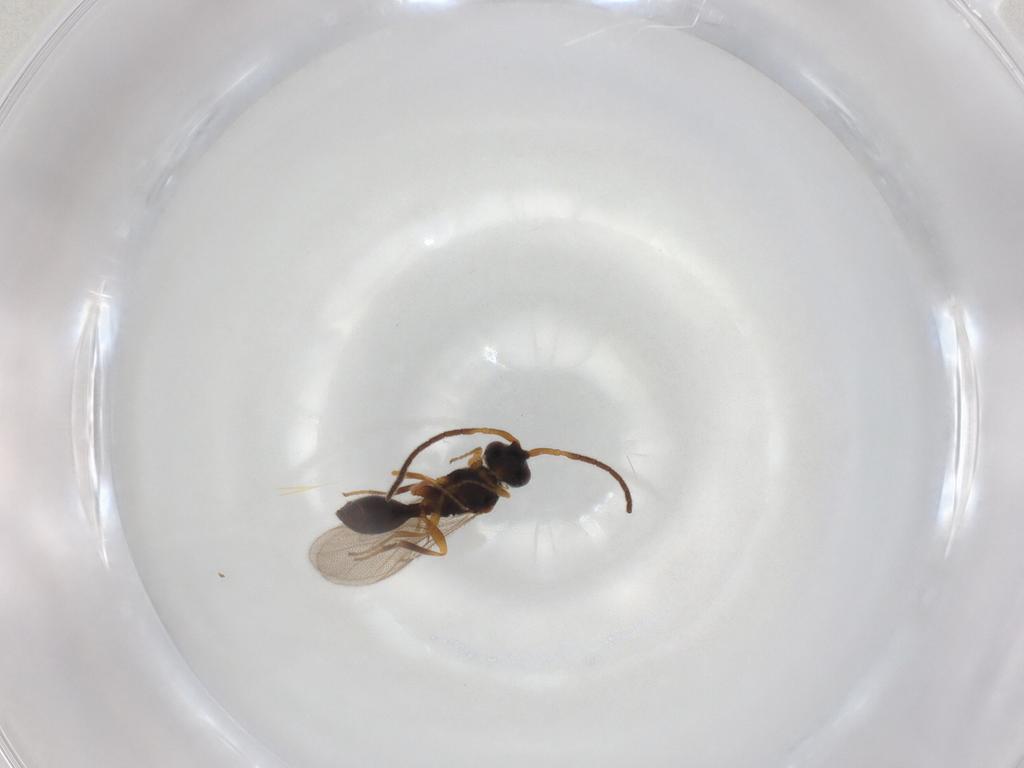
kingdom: Animalia
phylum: Arthropoda
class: Insecta
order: Hymenoptera
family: Diapriidae
